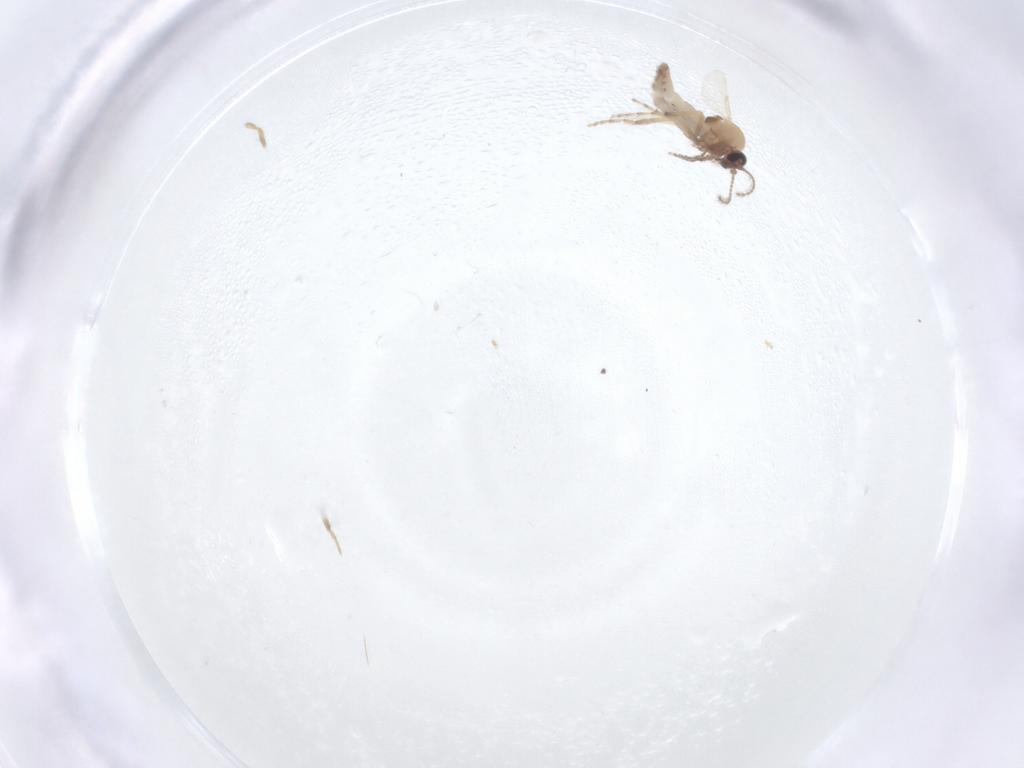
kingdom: Animalia
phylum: Arthropoda
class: Insecta
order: Diptera
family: Ceratopogonidae
